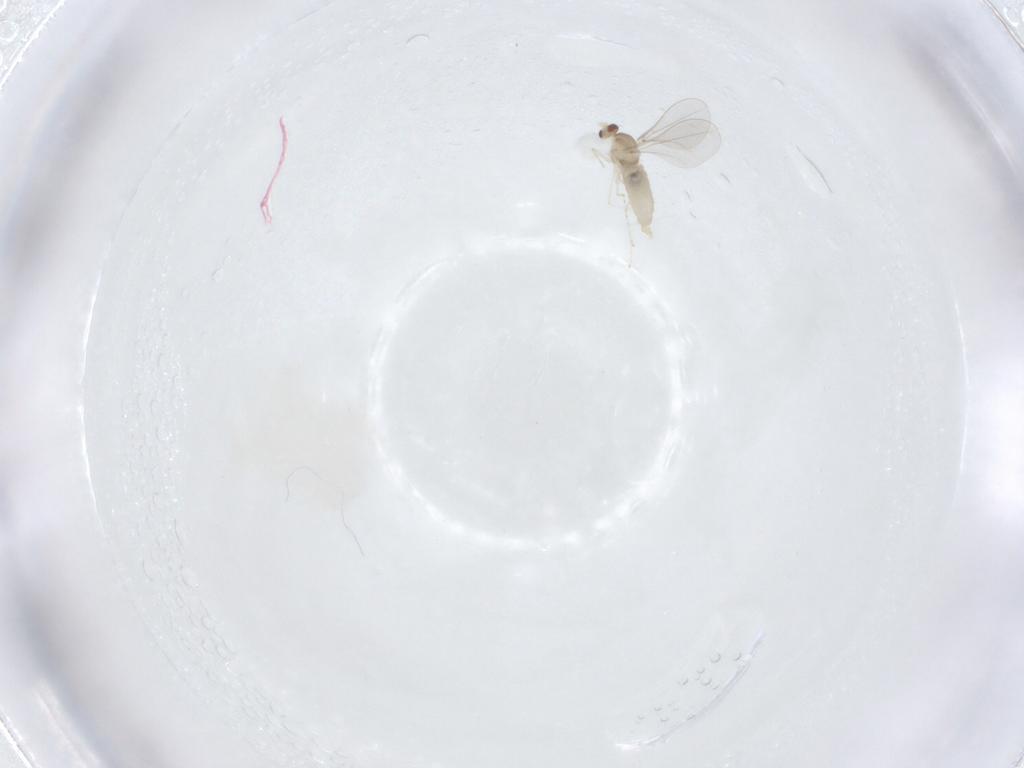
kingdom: Animalia
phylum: Arthropoda
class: Insecta
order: Diptera
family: Cecidomyiidae
